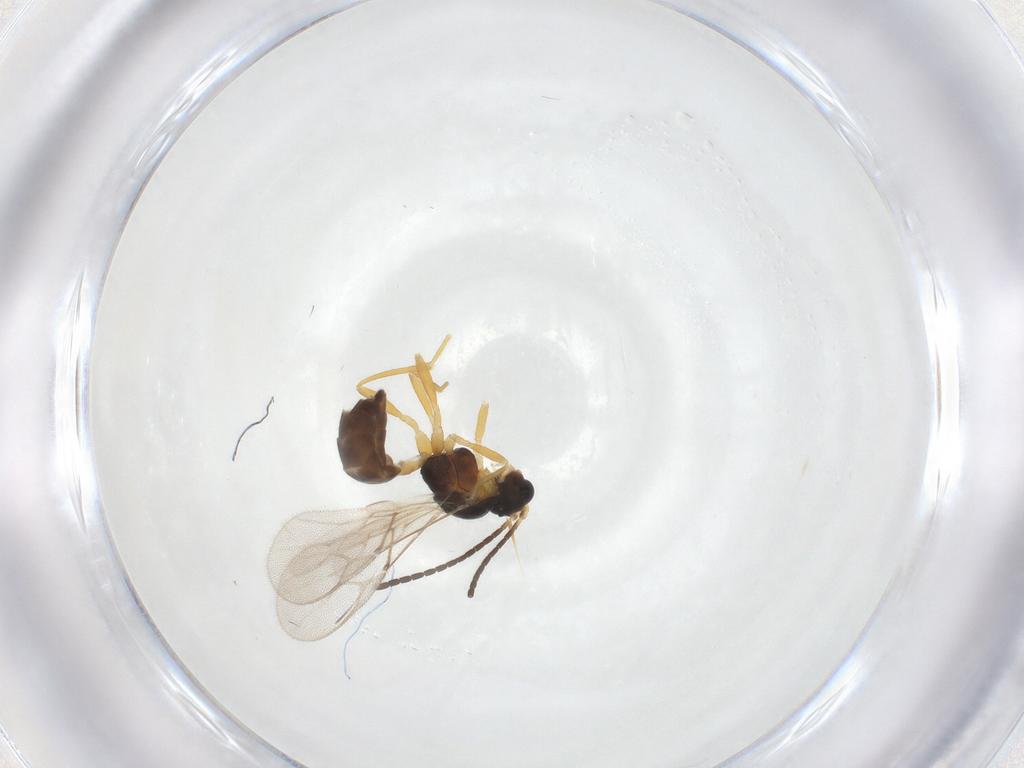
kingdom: Animalia
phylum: Arthropoda
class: Insecta
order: Hymenoptera
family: Braconidae
